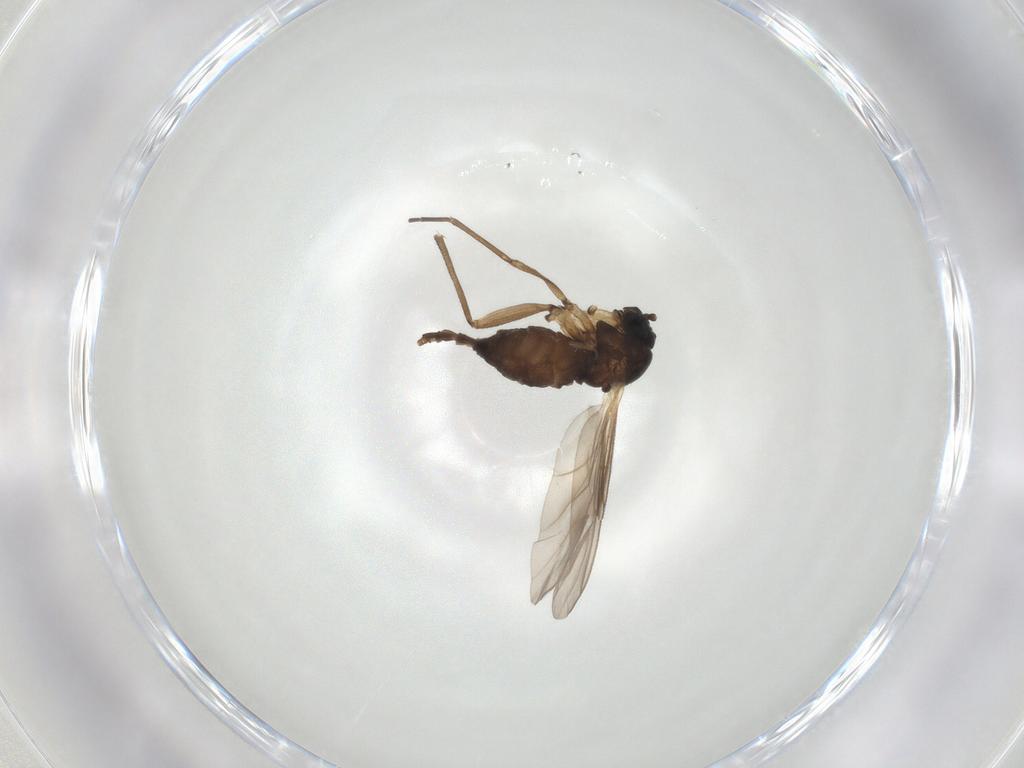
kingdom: Animalia
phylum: Arthropoda
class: Insecta
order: Diptera
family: Sciaridae
